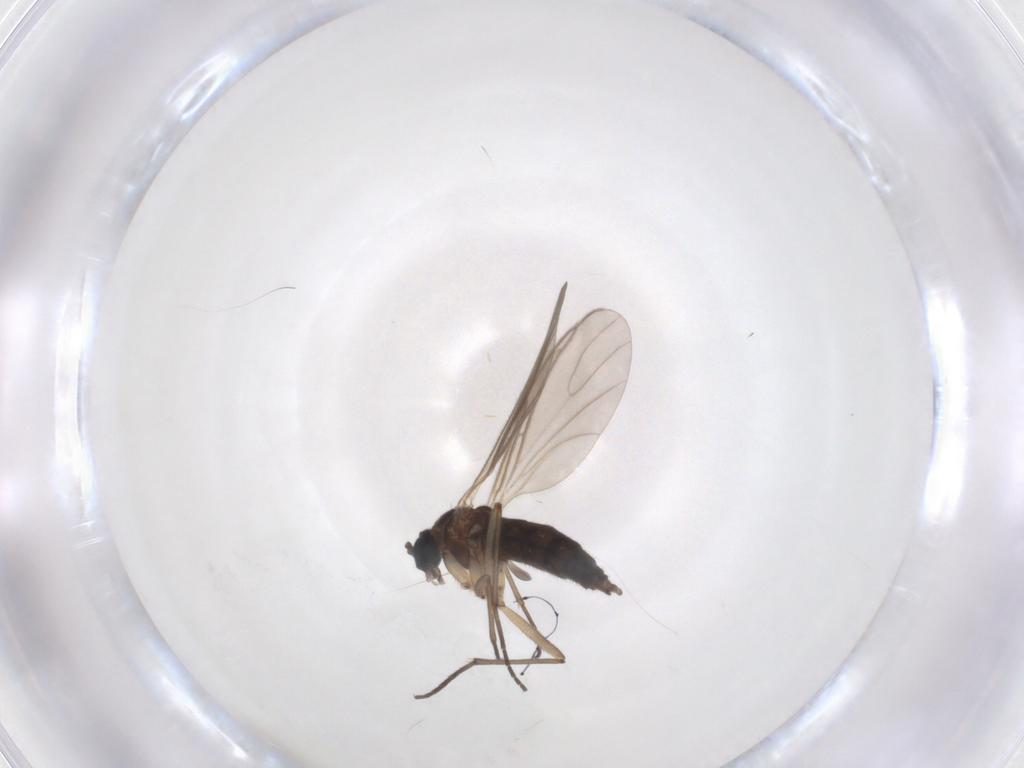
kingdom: Animalia
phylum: Arthropoda
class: Insecta
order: Diptera
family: Sciaridae
